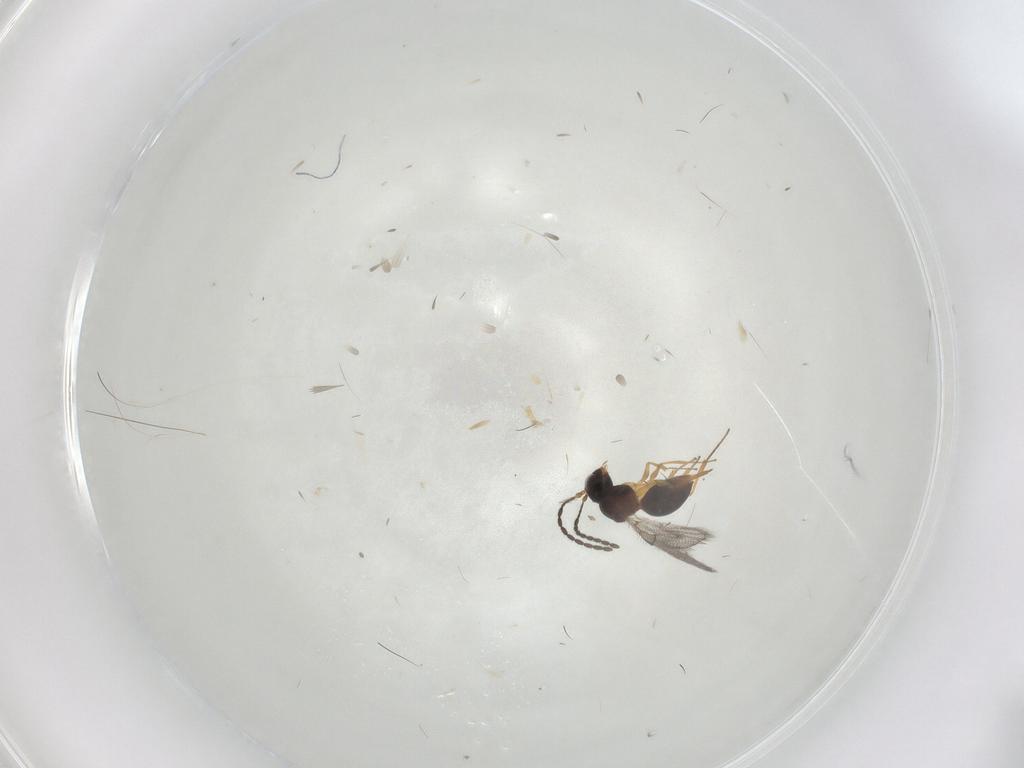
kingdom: Animalia
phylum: Arthropoda
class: Insecta
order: Hymenoptera
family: Figitidae
